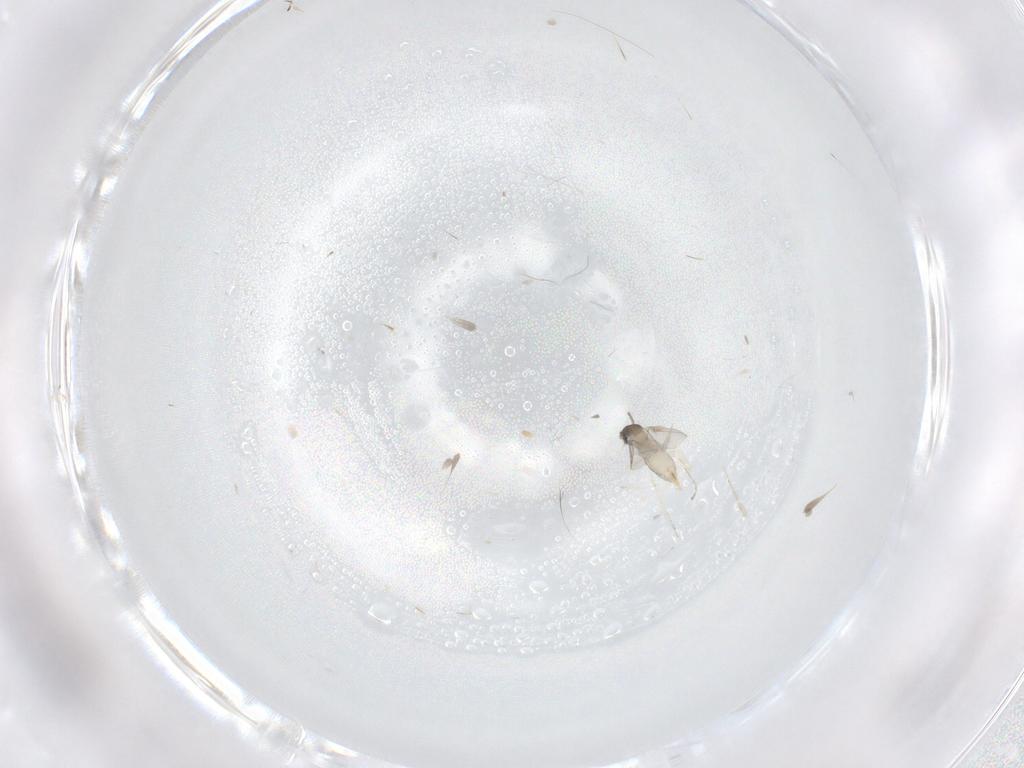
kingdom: Animalia
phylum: Arthropoda
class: Insecta
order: Diptera
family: Cecidomyiidae
